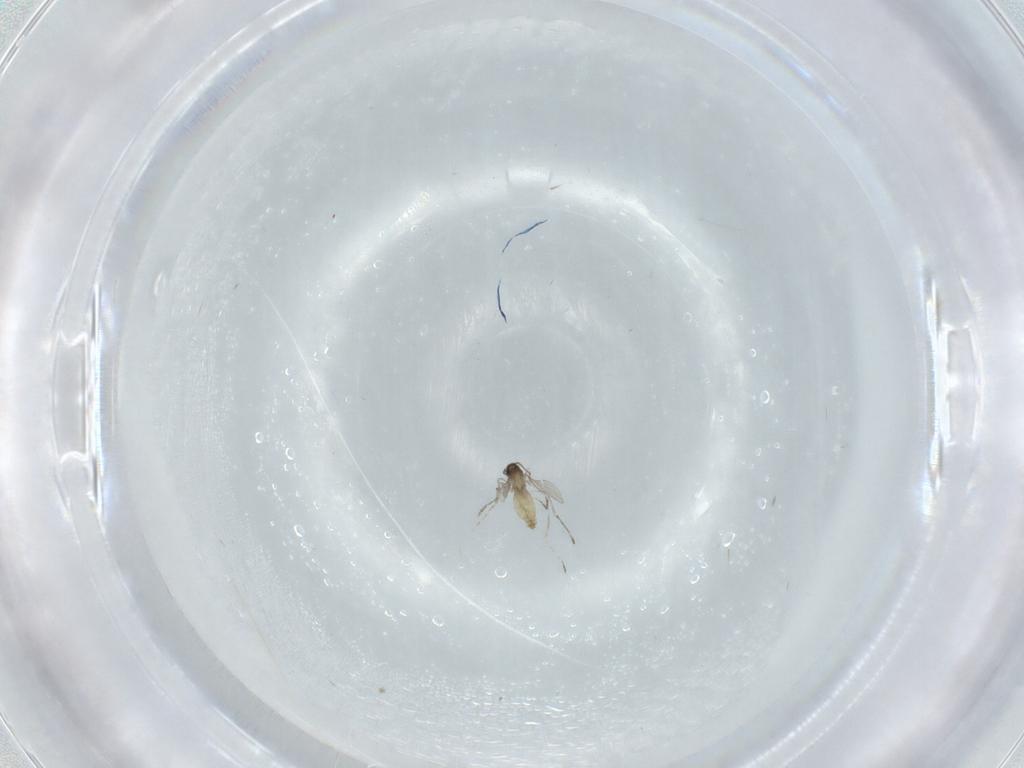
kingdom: Animalia
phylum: Arthropoda
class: Insecta
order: Diptera
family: Phoridae
